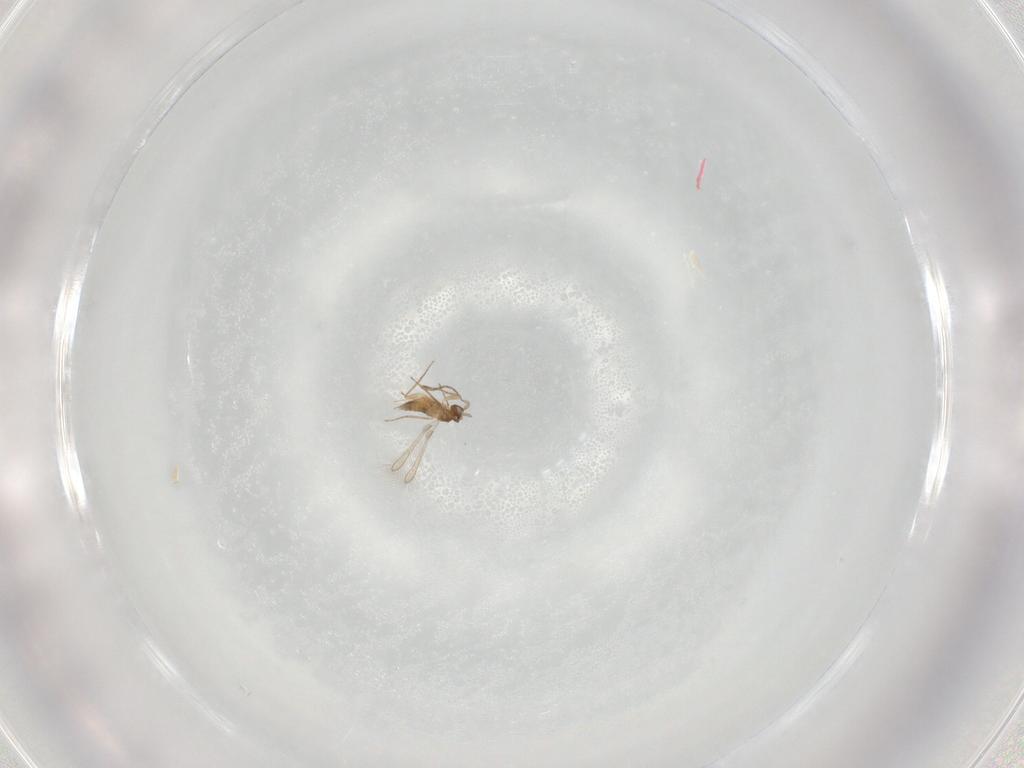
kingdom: Animalia
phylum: Arthropoda
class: Insecta
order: Hymenoptera
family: Mymaridae
